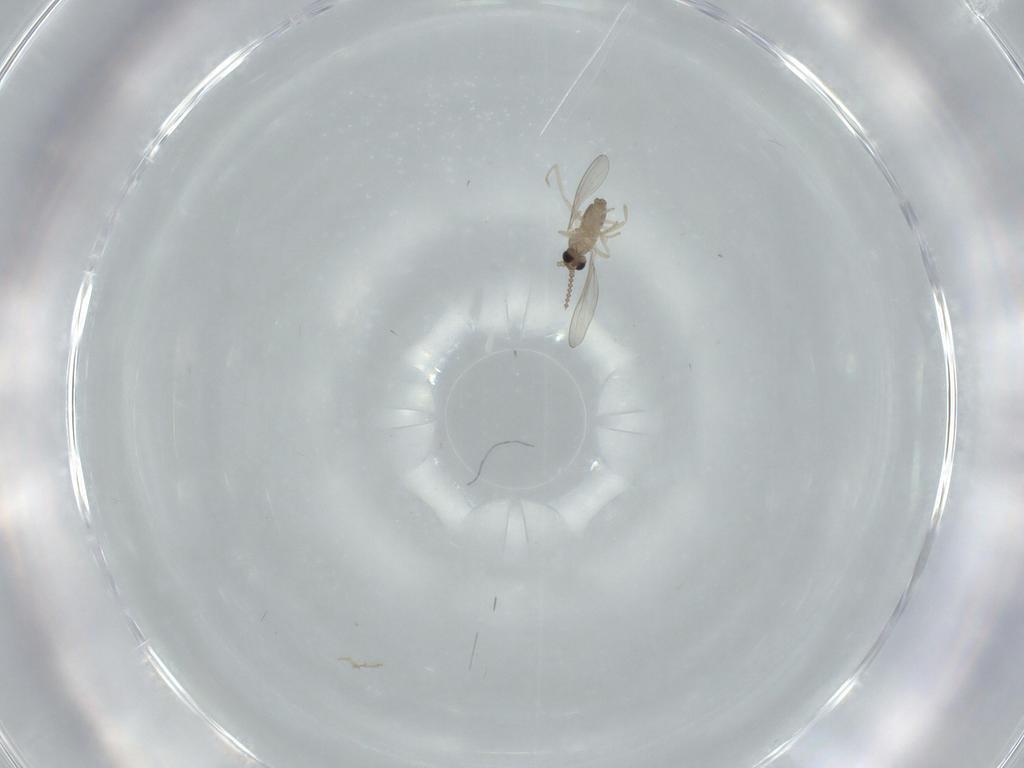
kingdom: Animalia
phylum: Arthropoda
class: Insecta
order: Diptera
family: Cecidomyiidae
